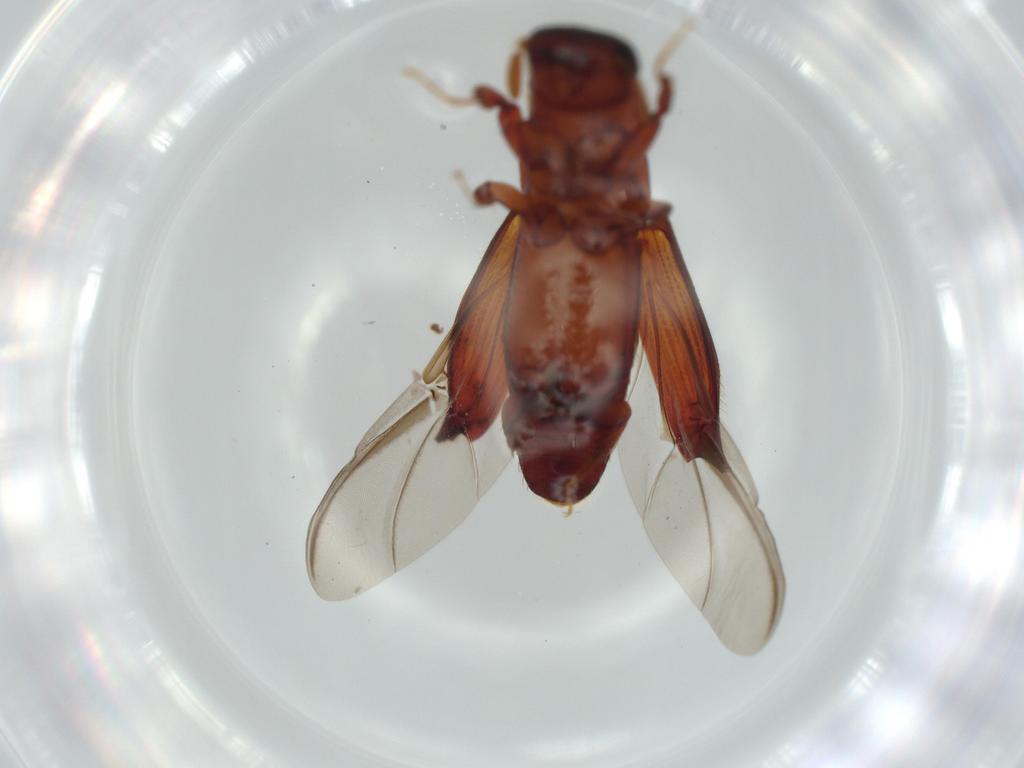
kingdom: Animalia
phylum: Arthropoda
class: Insecta
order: Coleoptera
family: Curculionidae
